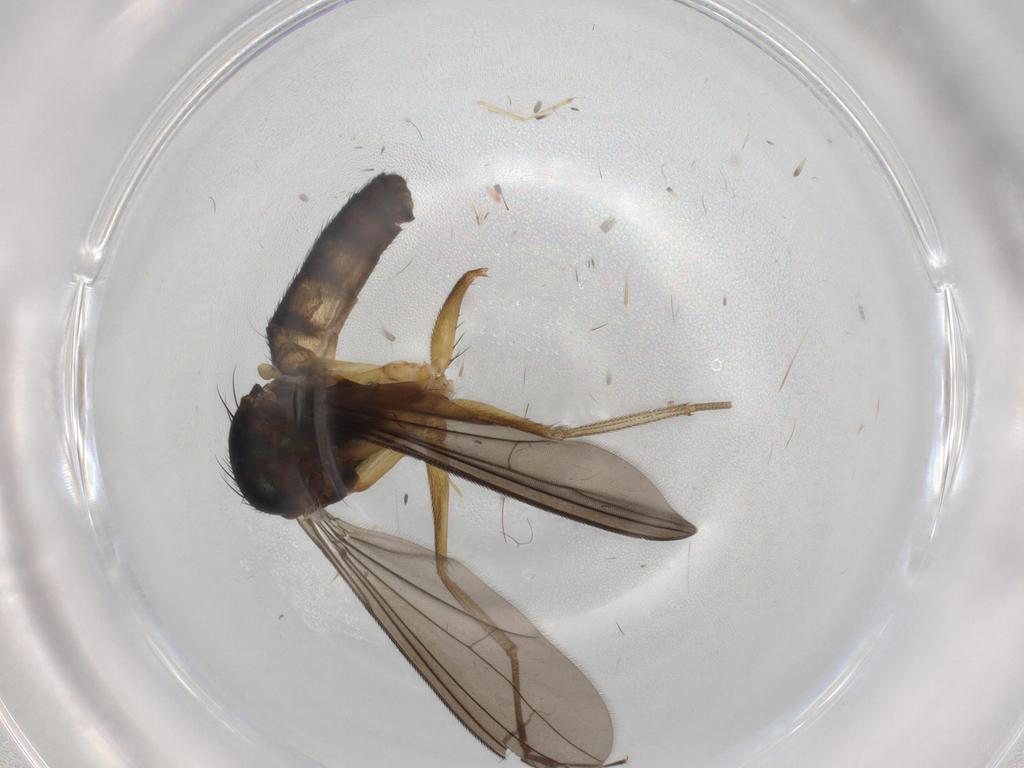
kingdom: Animalia
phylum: Arthropoda
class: Insecta
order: Diptera
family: Dolichopodidae
